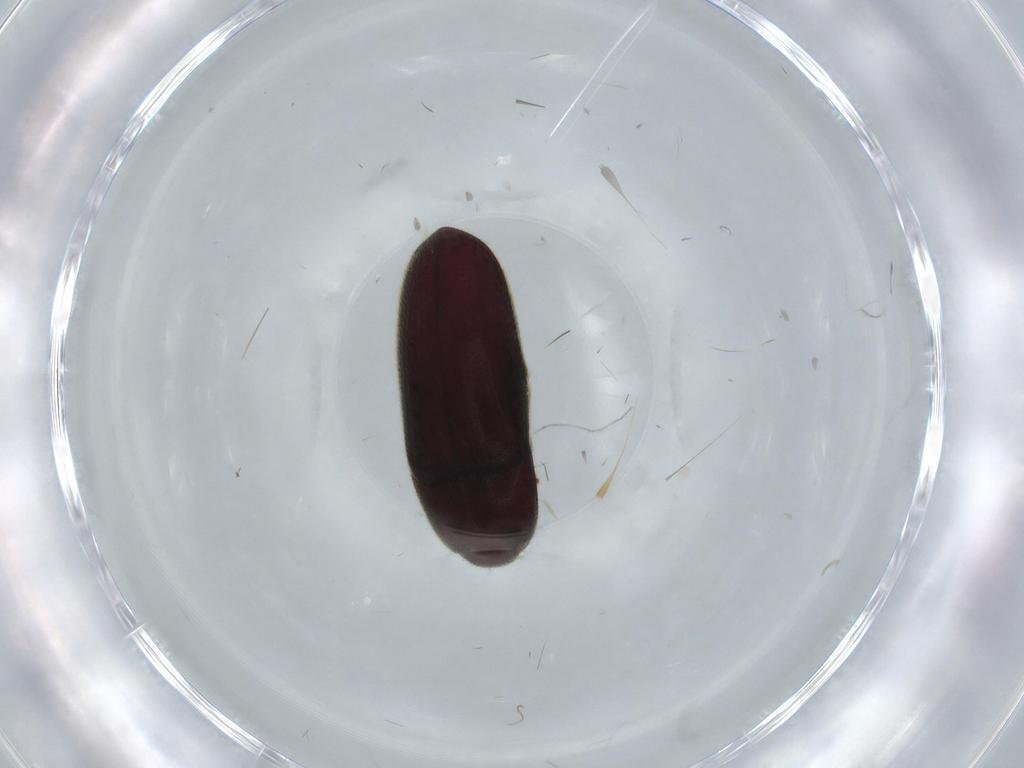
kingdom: Animalia
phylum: Arthropoda
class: Insecta
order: Coleoptera
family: Throscidae
